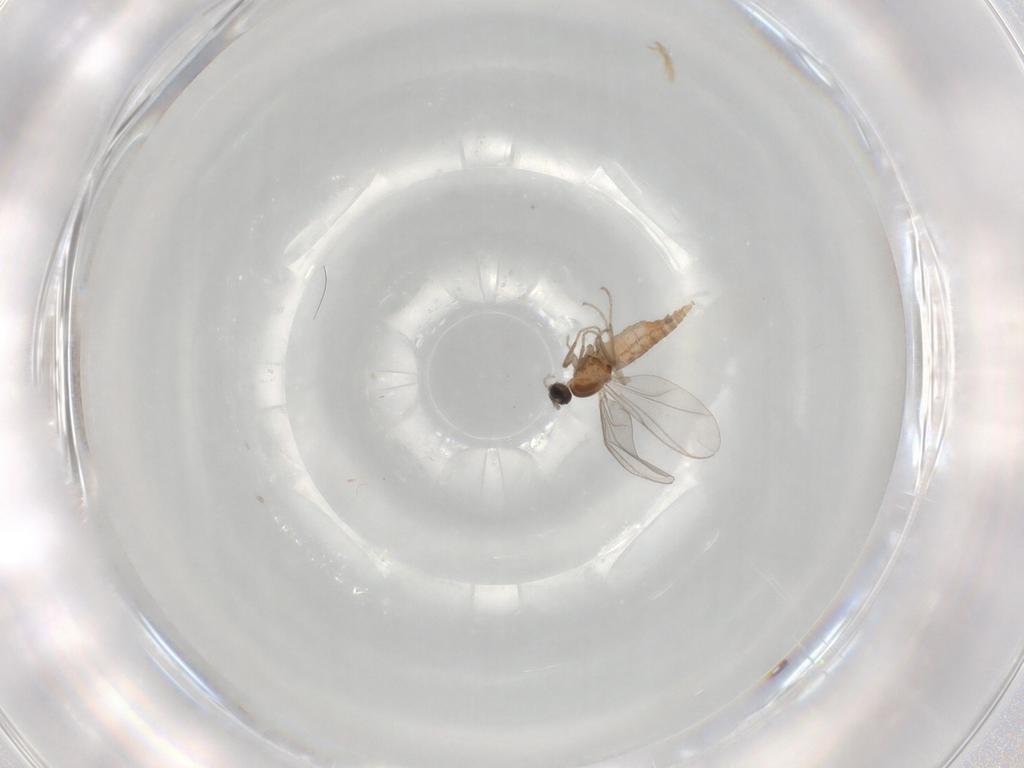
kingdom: Animalia
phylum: Arthropoda
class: Insecta
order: Diptera
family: Cecidomyiidae
